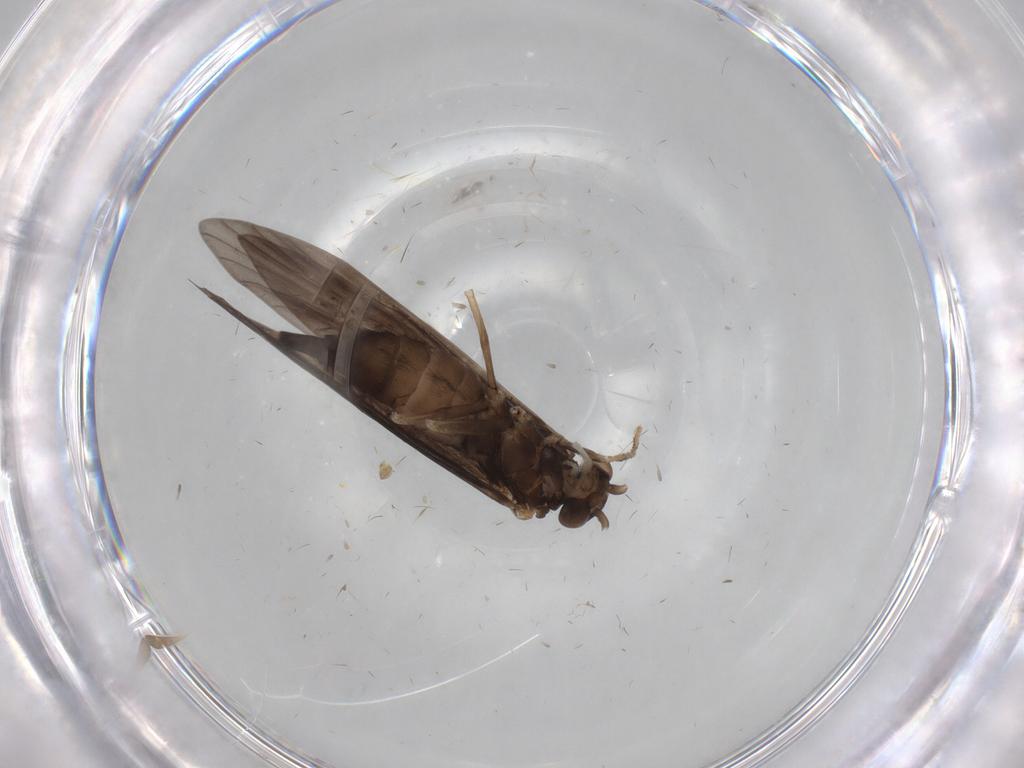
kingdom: Animalia
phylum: Arthropoda
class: Insecta
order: Trichoptera
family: Xiphocentronidae
